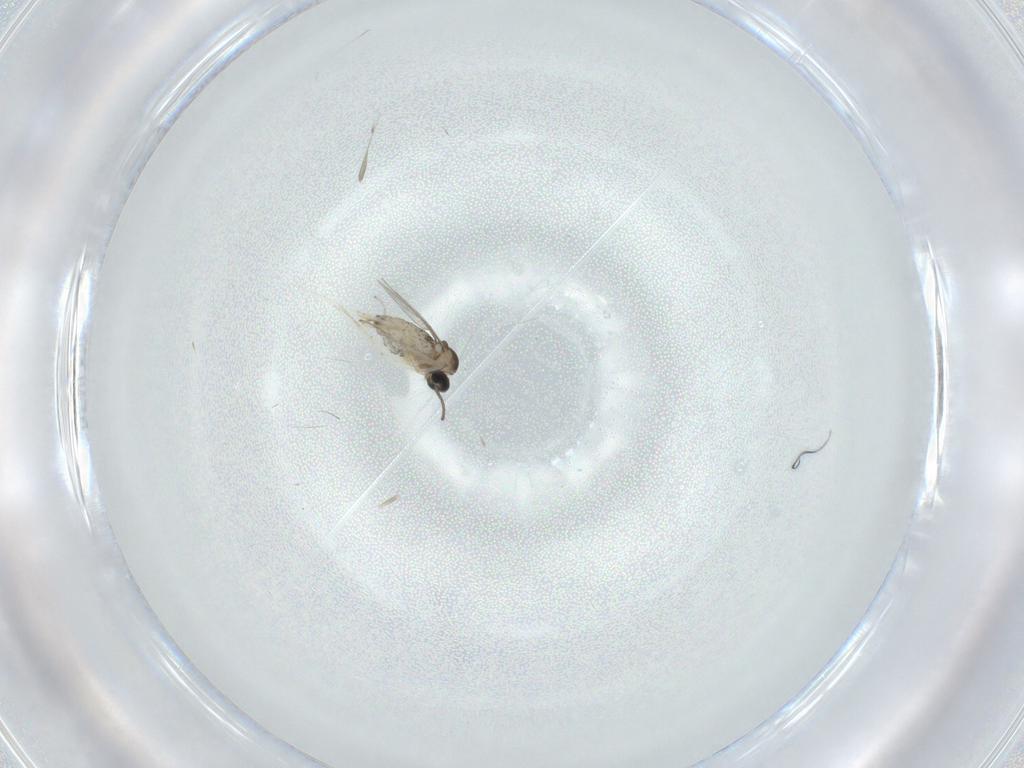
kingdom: Animalia
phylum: Arthropoda
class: Insecta
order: Diptera
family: Cecidomyiidae
